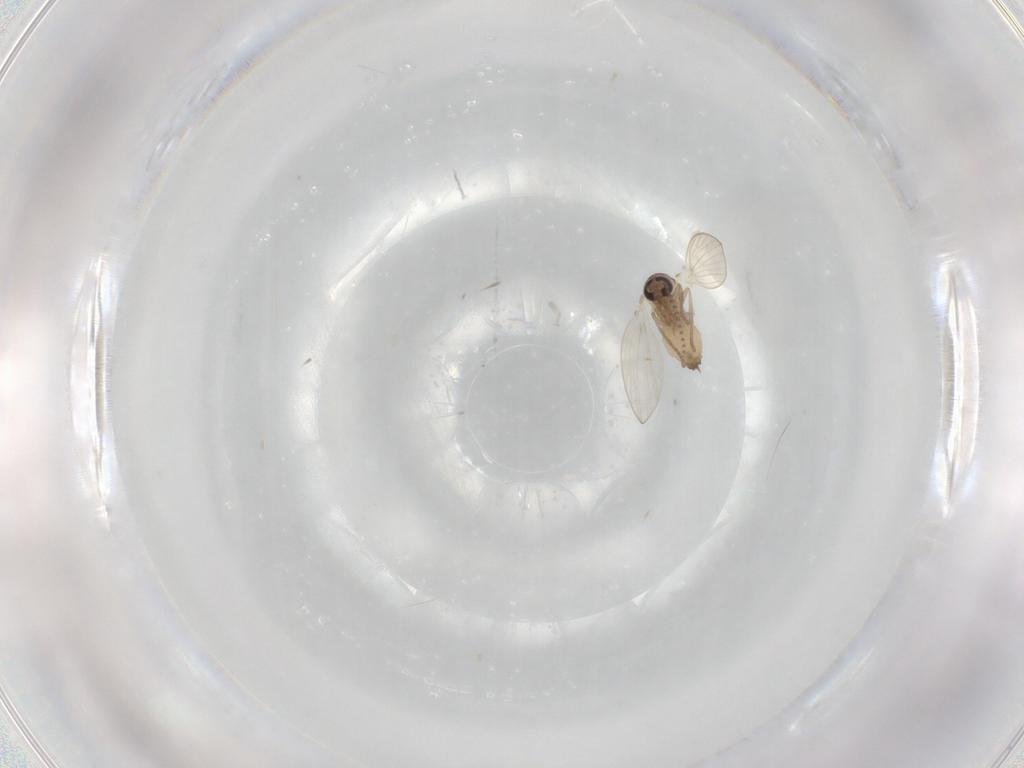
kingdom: Animalia
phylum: Arthropoda
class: Insecta
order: Diptera
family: Psychodidae
